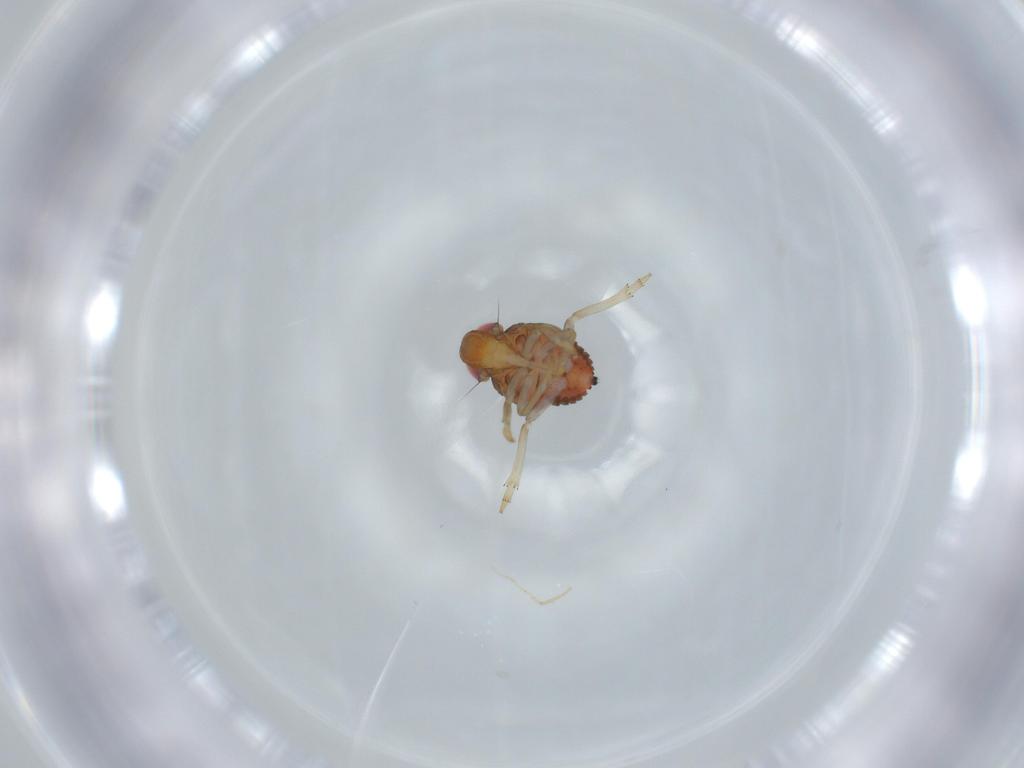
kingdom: Animalia
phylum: Arthropoda
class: Insecta
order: Hemiptera
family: Issidae
